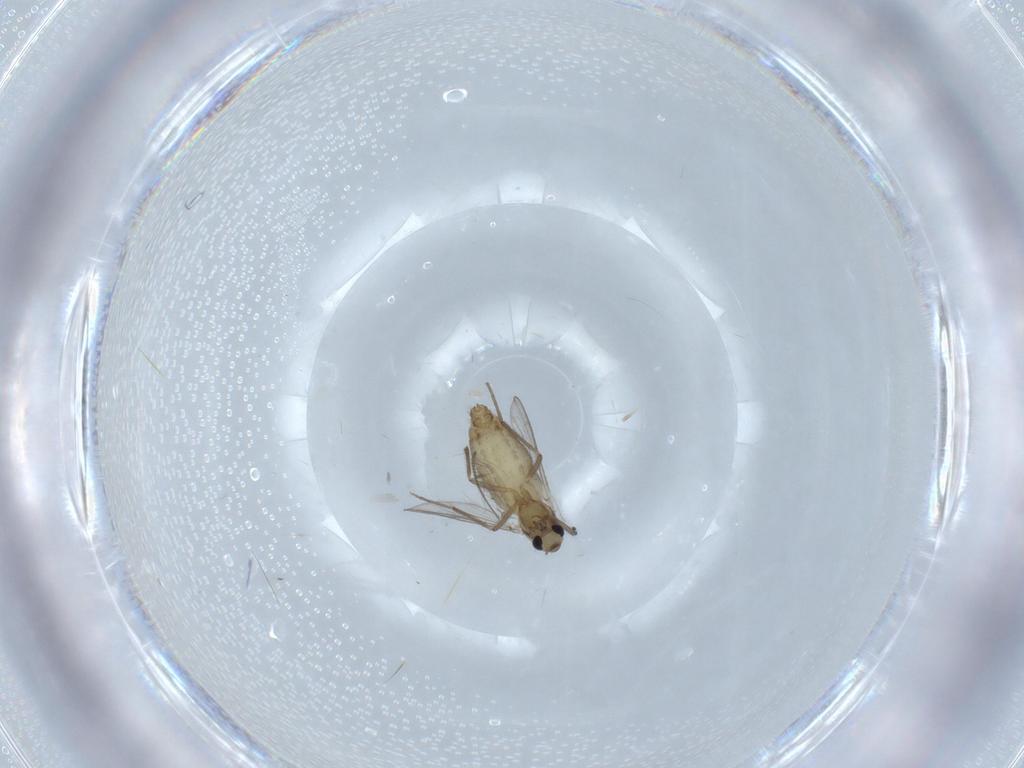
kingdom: Animalia
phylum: Arthropoda
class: Insecta
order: Diptera
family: Chironomidae
